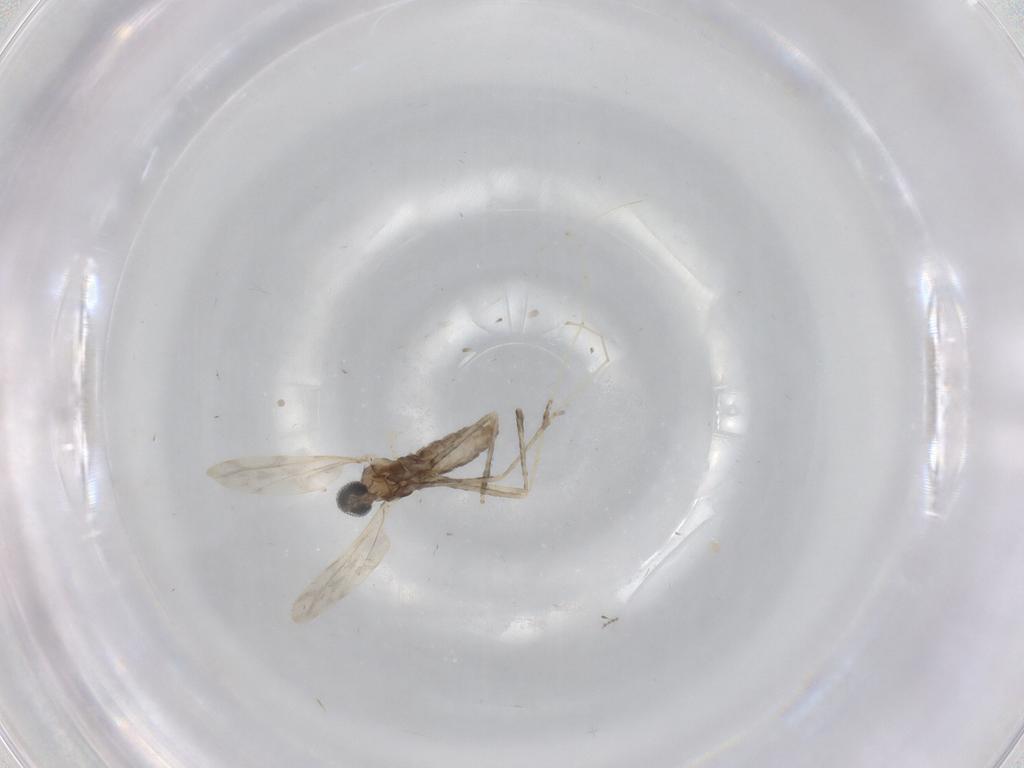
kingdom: Animalia
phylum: Arthropoda
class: Insecta
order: Diptera
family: Cecidomyiidae
